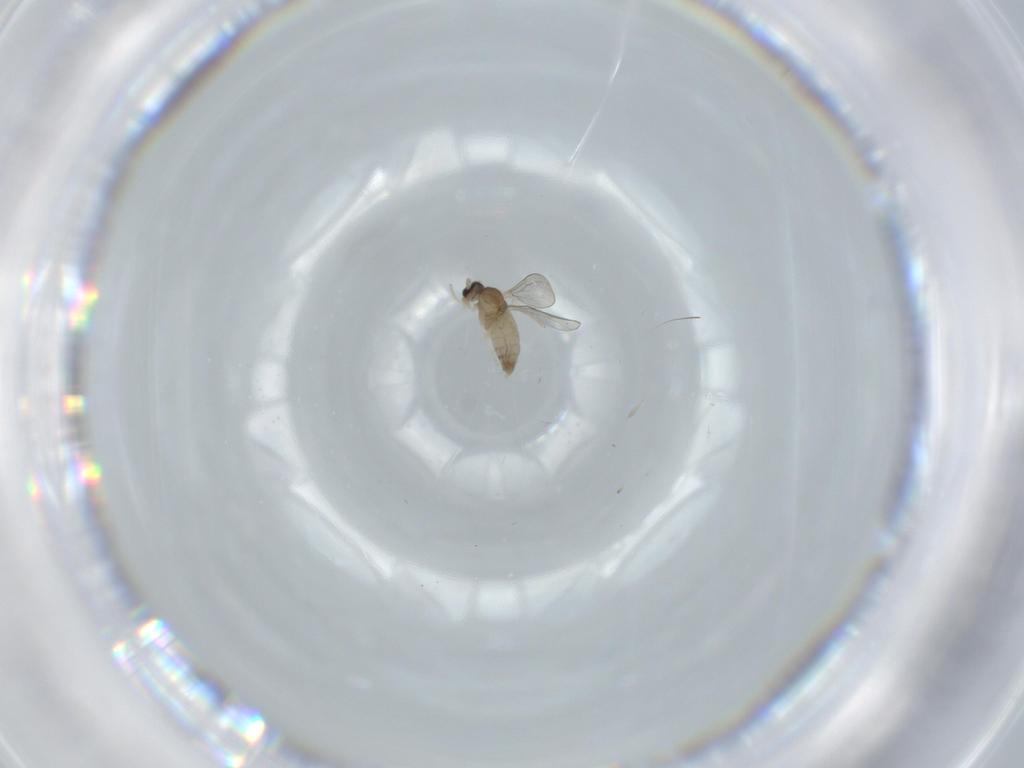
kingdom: Animalia
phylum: Arthropoda
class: Insecta
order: Diptera
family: Cecidomyiidae
